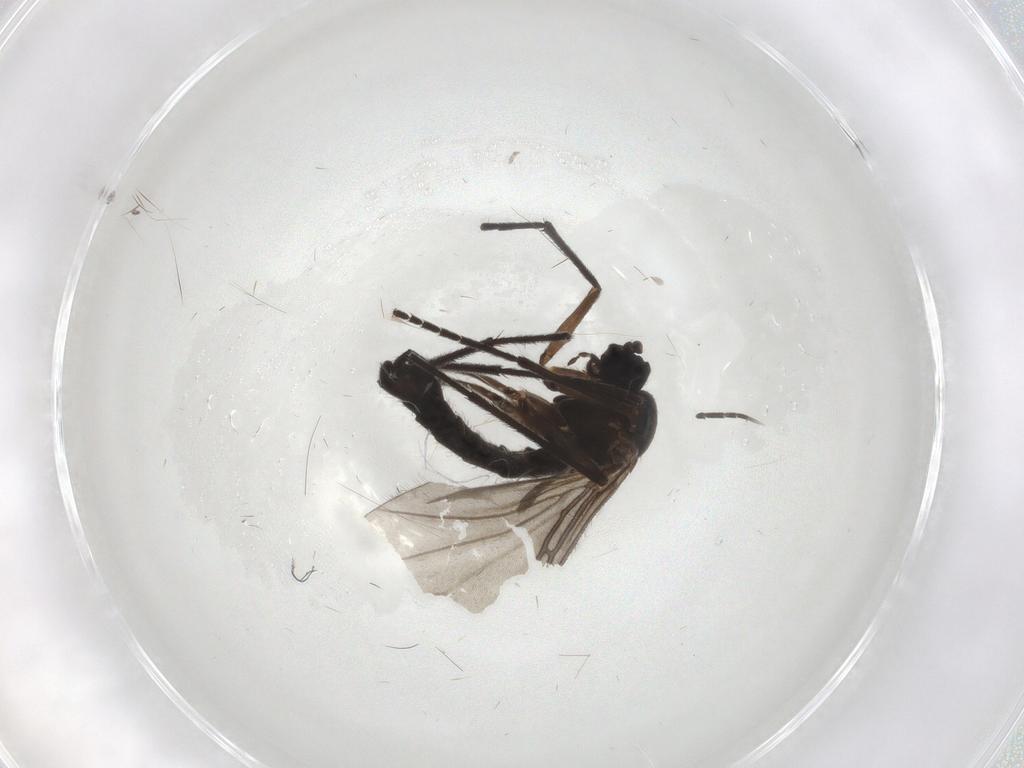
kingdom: Animalia
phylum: Arthropoda
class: Insecta
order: Diptera
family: Sciaridae
